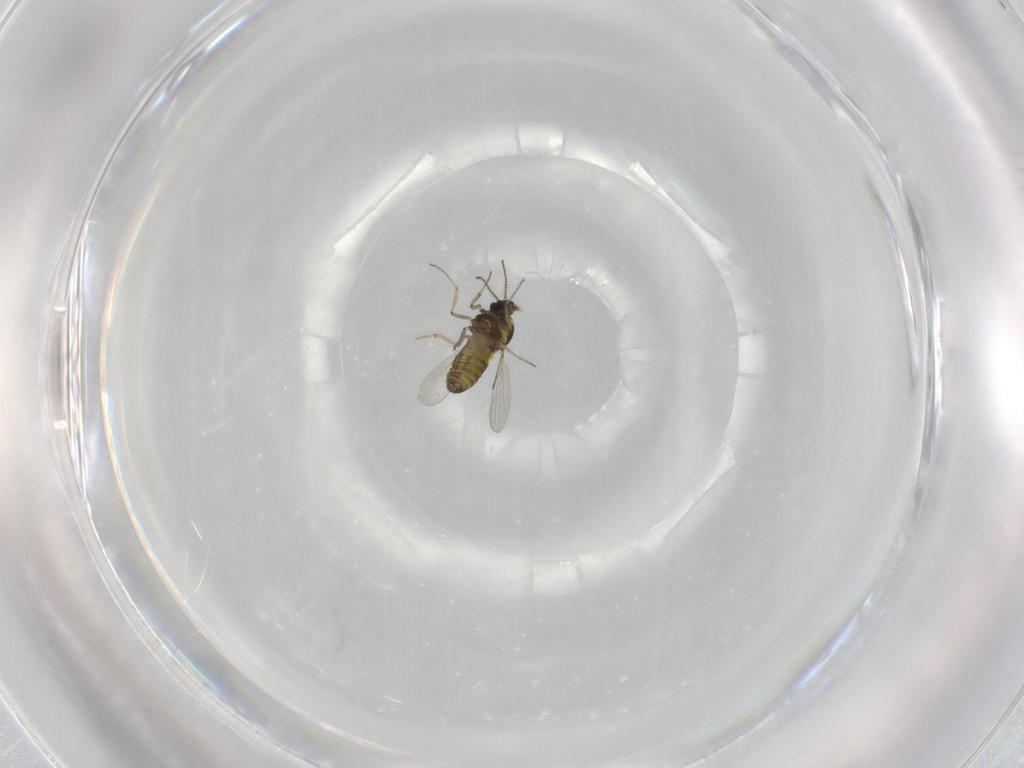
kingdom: Animalia
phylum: Arthropoda
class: Insecta
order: Diptera
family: Ceratopogonidae
